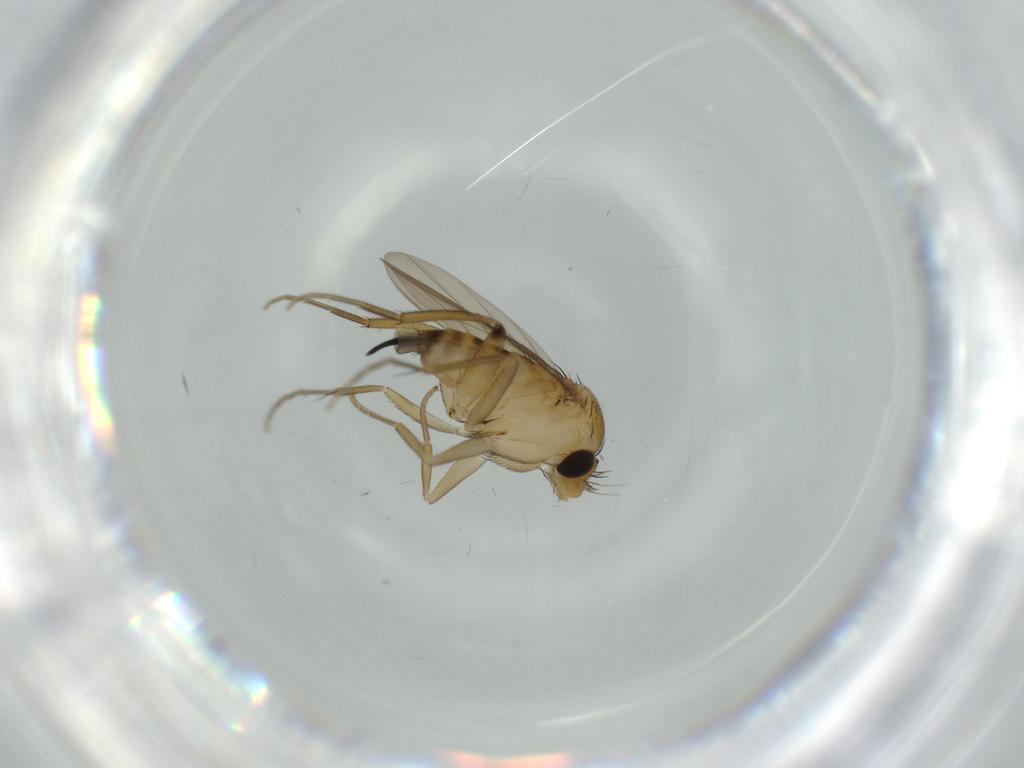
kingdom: Animalia
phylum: Arthropoda
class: Insecta
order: Diptera
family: Phoridae
